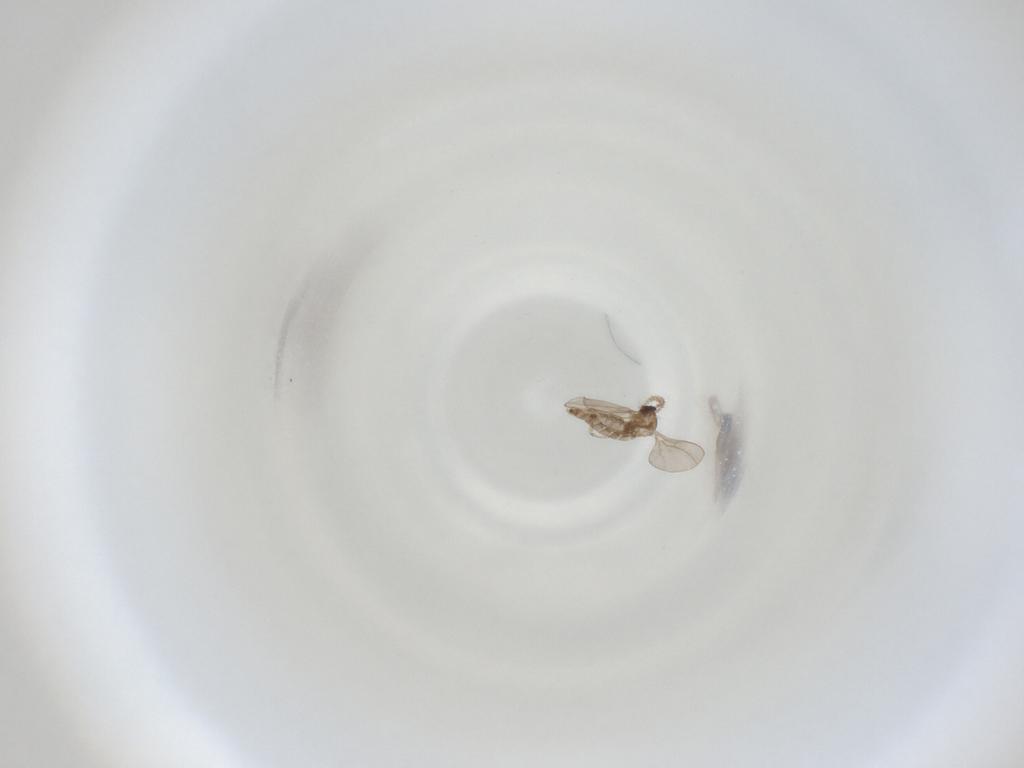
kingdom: Animalia
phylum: Arthropoda
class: Insecta
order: Diptera
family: Cecidomyiidae
